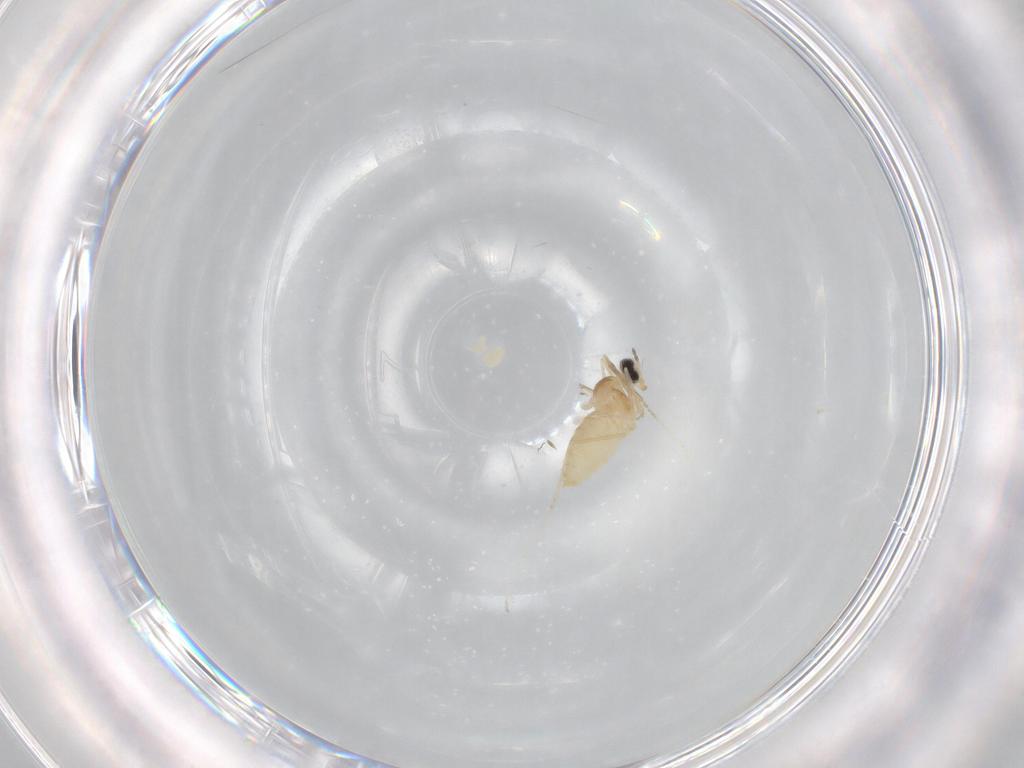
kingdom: Animalia
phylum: Arthropoda
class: Insecta
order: Diptera
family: Cecidomyiidae
